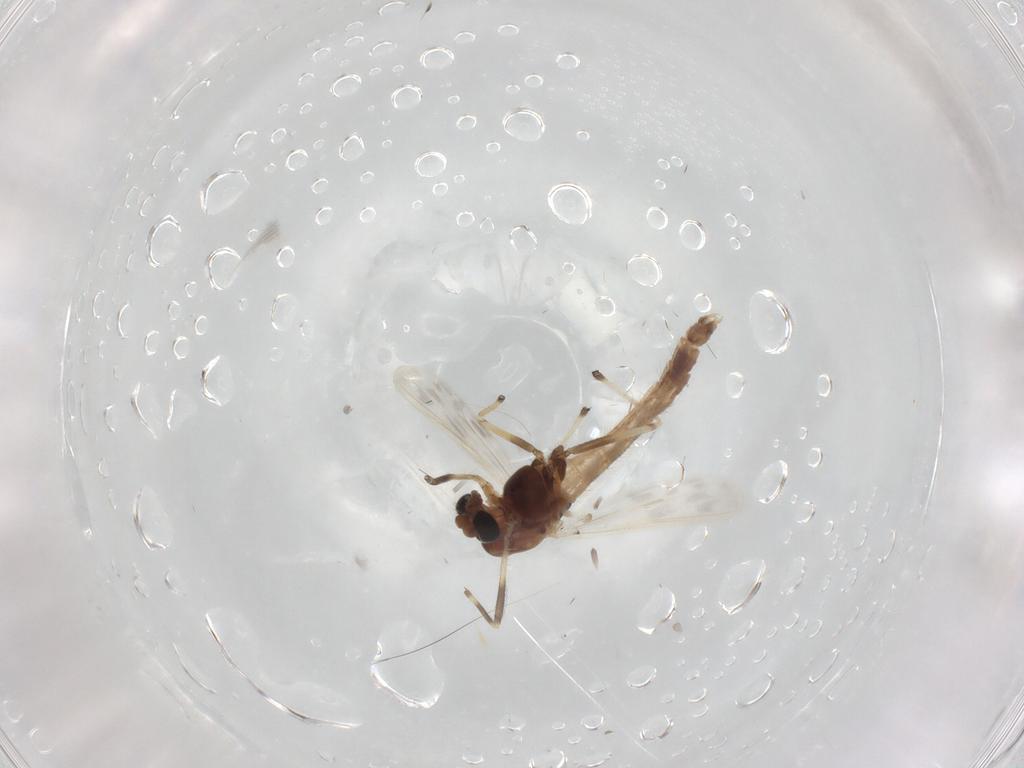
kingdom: Animalia
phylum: Arthropoda
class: Insecta
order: Diptera
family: Chironomidae
